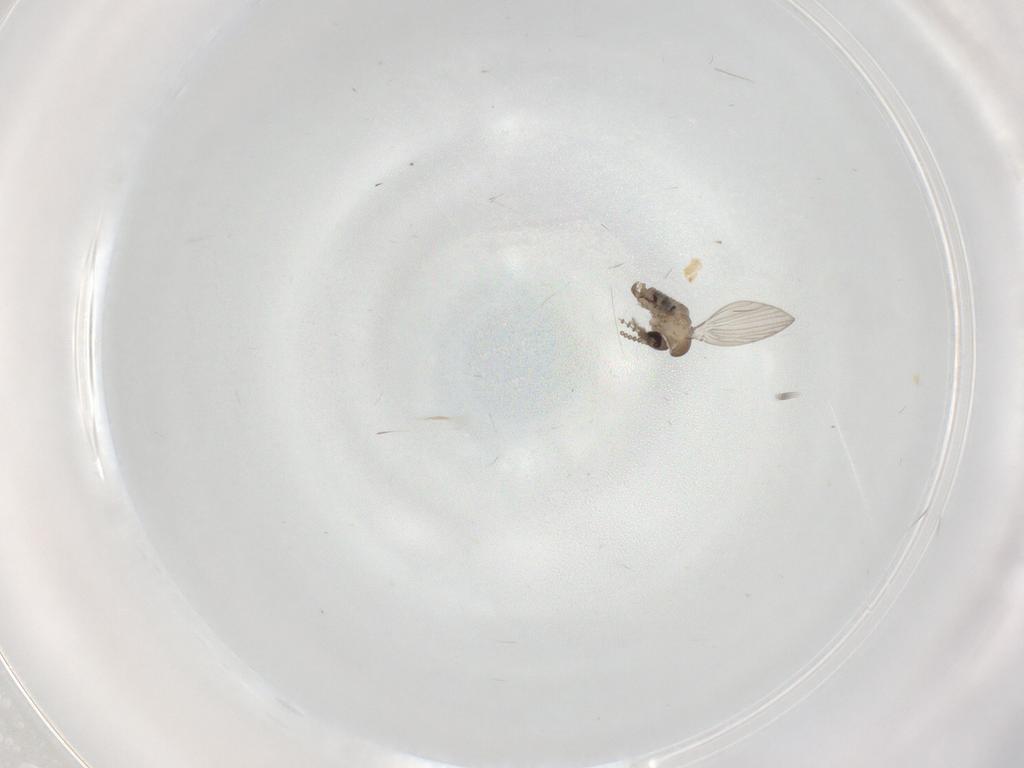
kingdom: Animalia
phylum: Arthropoda
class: Insecta
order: Diptera
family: Psychodidae
